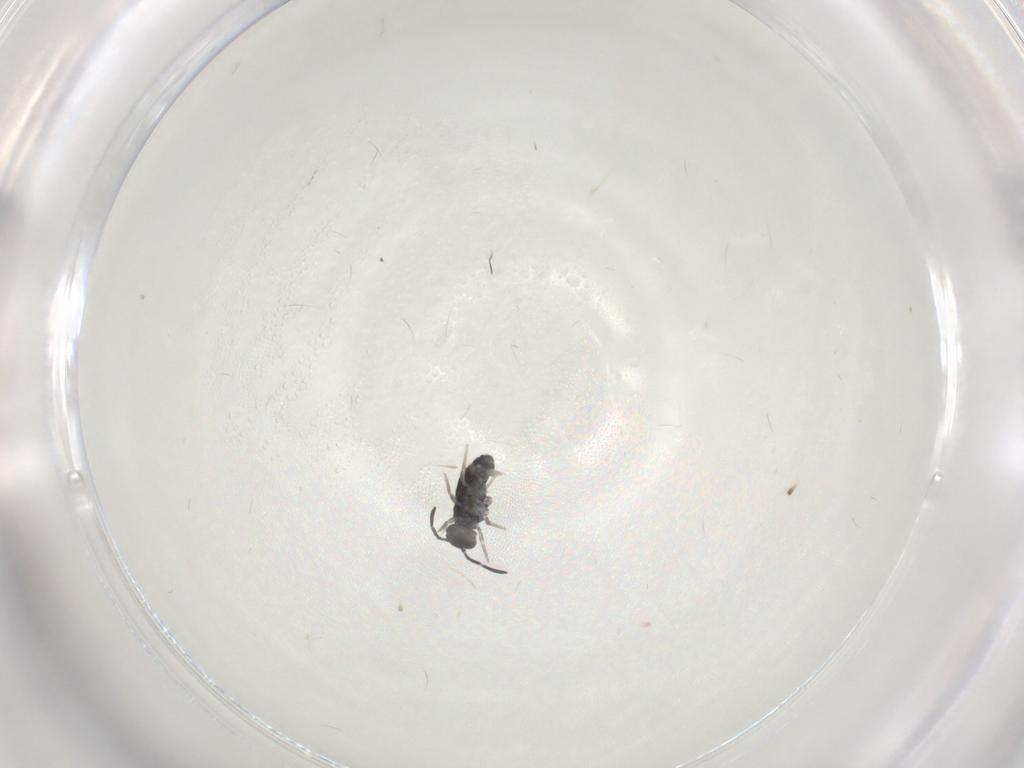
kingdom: Animalia
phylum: Arthropoda
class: Collembola
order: Symphypleona
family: Katiannidae
